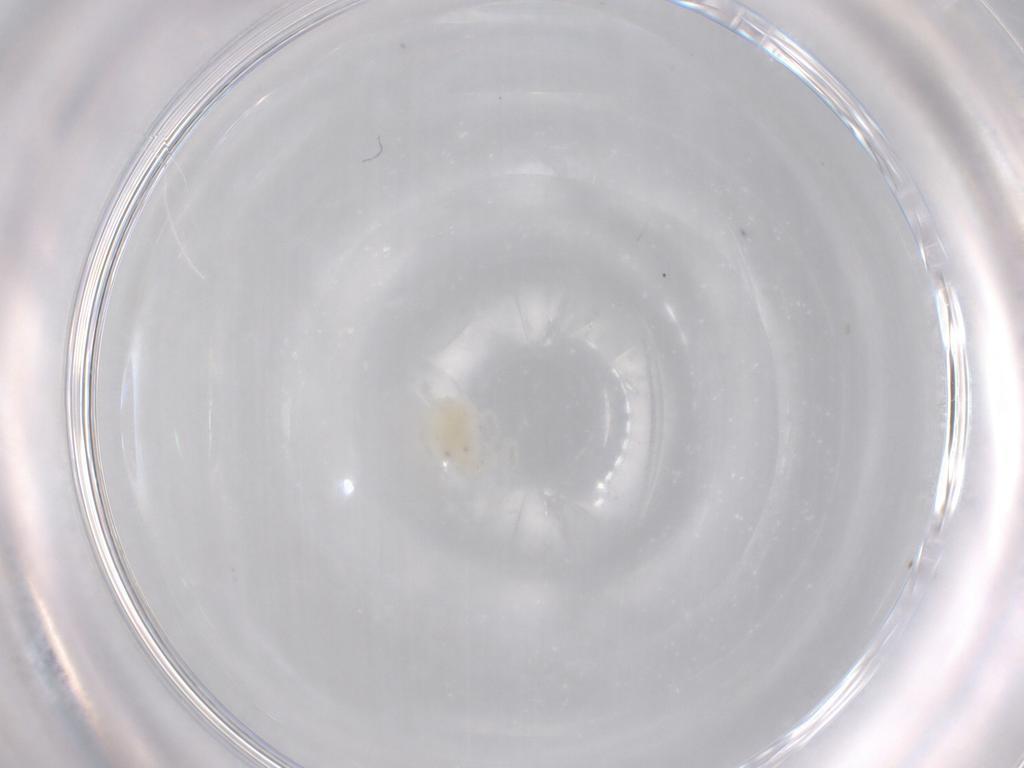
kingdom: Animalia
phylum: Arthropoda
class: Arachnida
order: Trombidiformes
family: Anystidae
